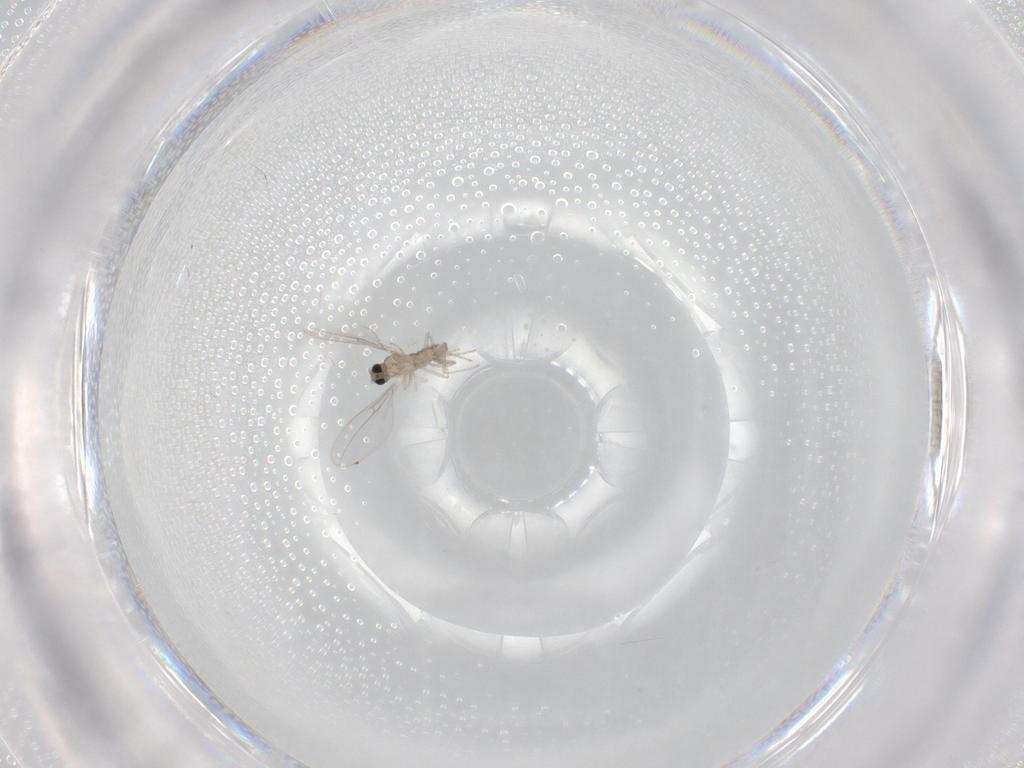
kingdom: Animalia
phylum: Arthropoda
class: Insecta
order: Diptera
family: Cecidomyiidae
